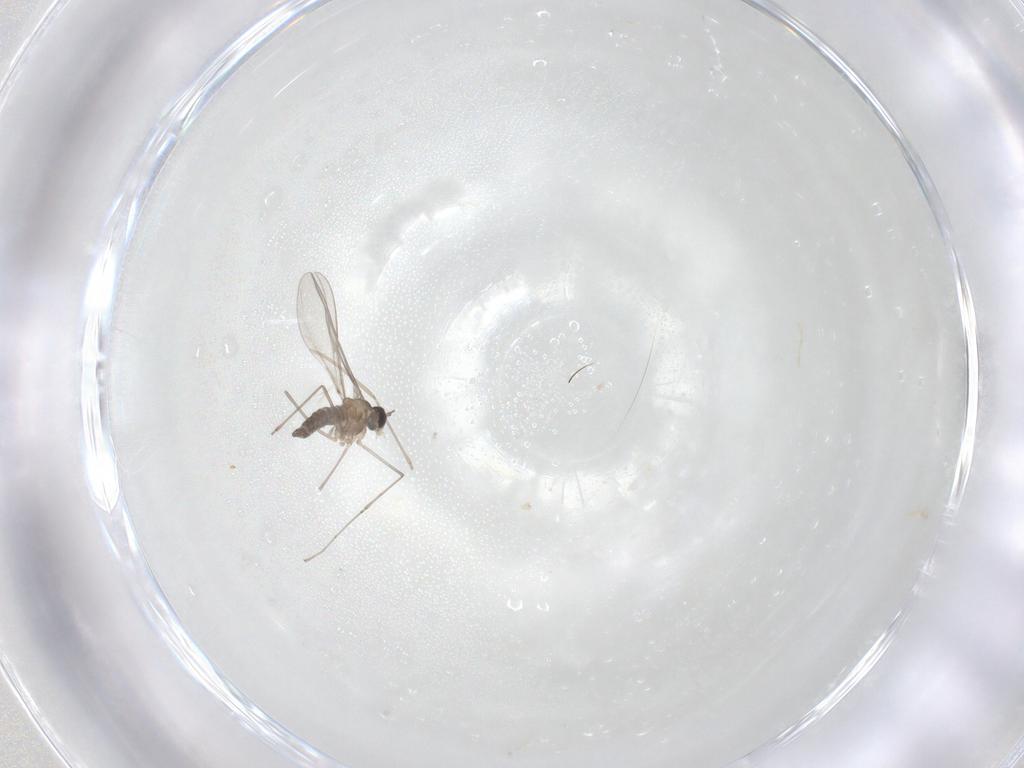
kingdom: Animalia
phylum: Arthropoda
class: Insecta
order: Diptera
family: Cecidomyiidae
